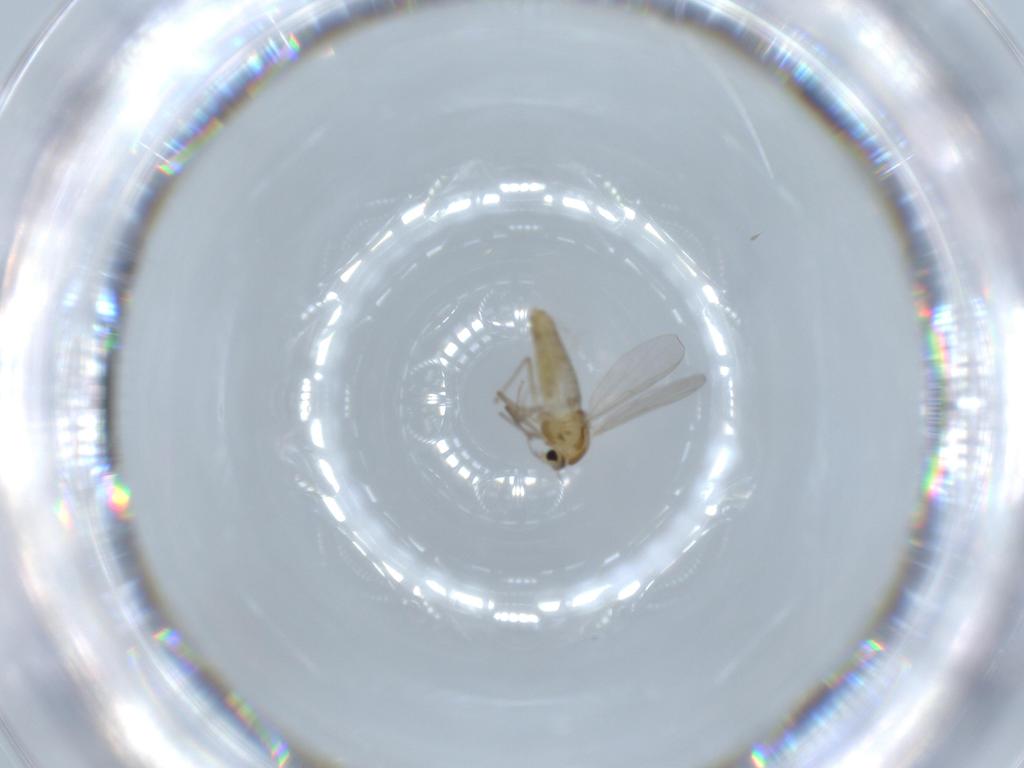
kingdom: Animalia
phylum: Arthropoda
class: Insecta
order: Diptera
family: Chironomidae
